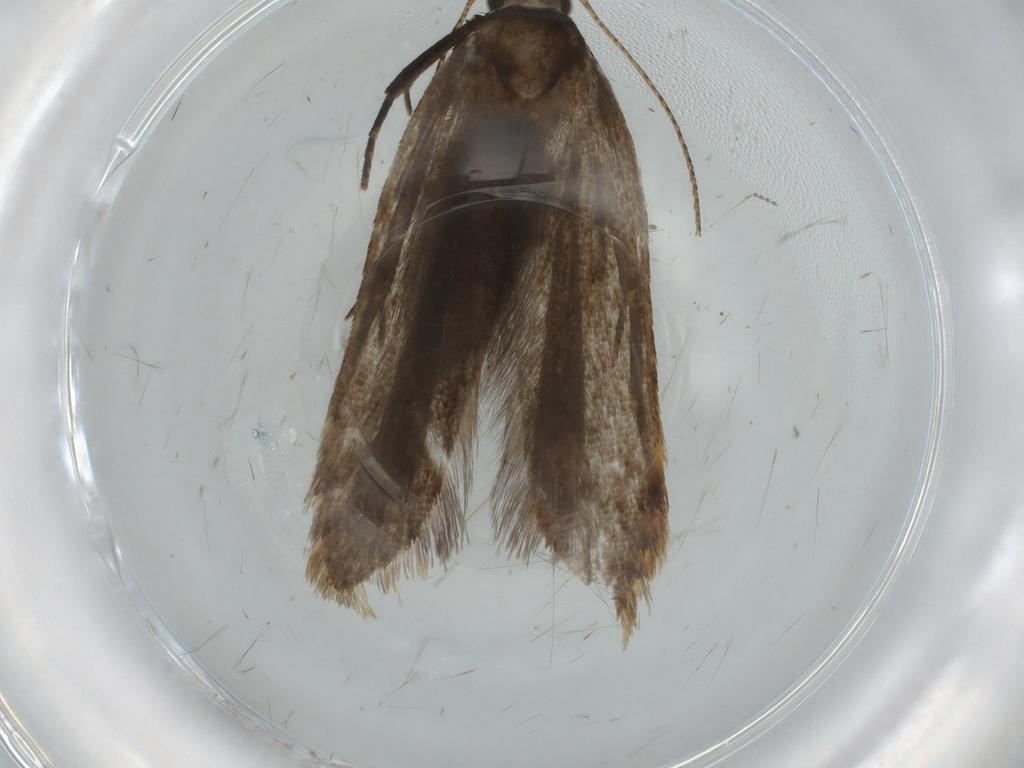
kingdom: Animalia
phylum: Arthropoda
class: Insecta
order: Lepidoptera
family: Gelechiidae
